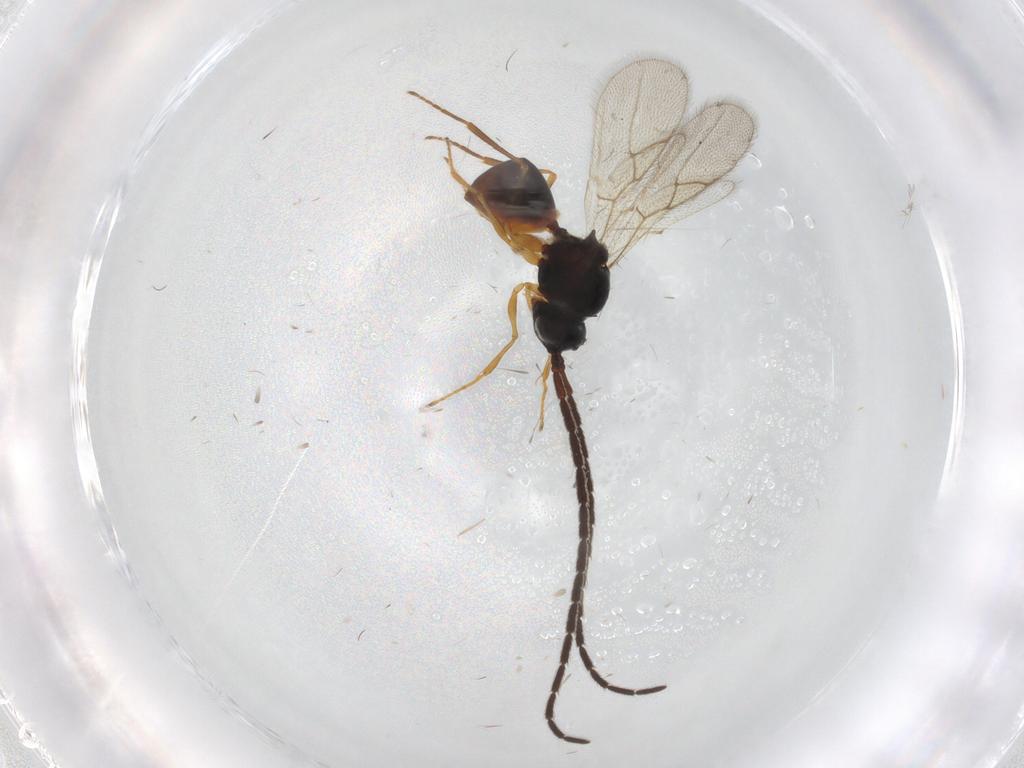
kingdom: Animalia
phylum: Arthropoda
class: Insecta
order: Hymenoptera
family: Figitidae
